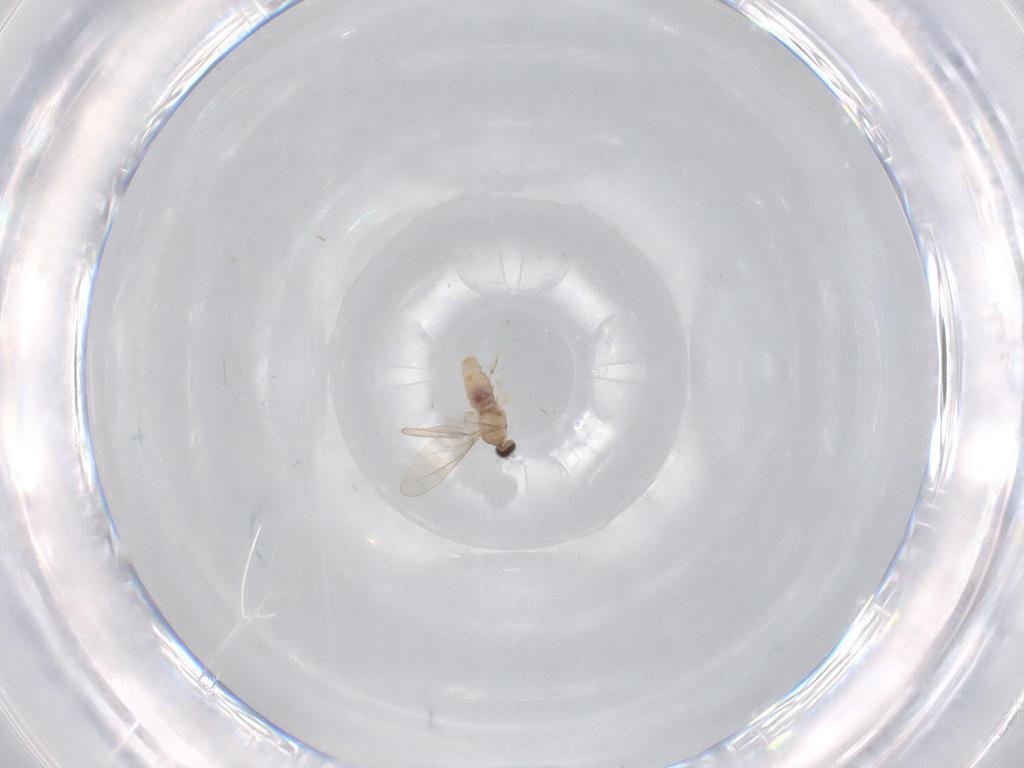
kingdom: Animalia
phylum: Arthropoda
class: Insecta
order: Diptera
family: Cecidomyiidae
